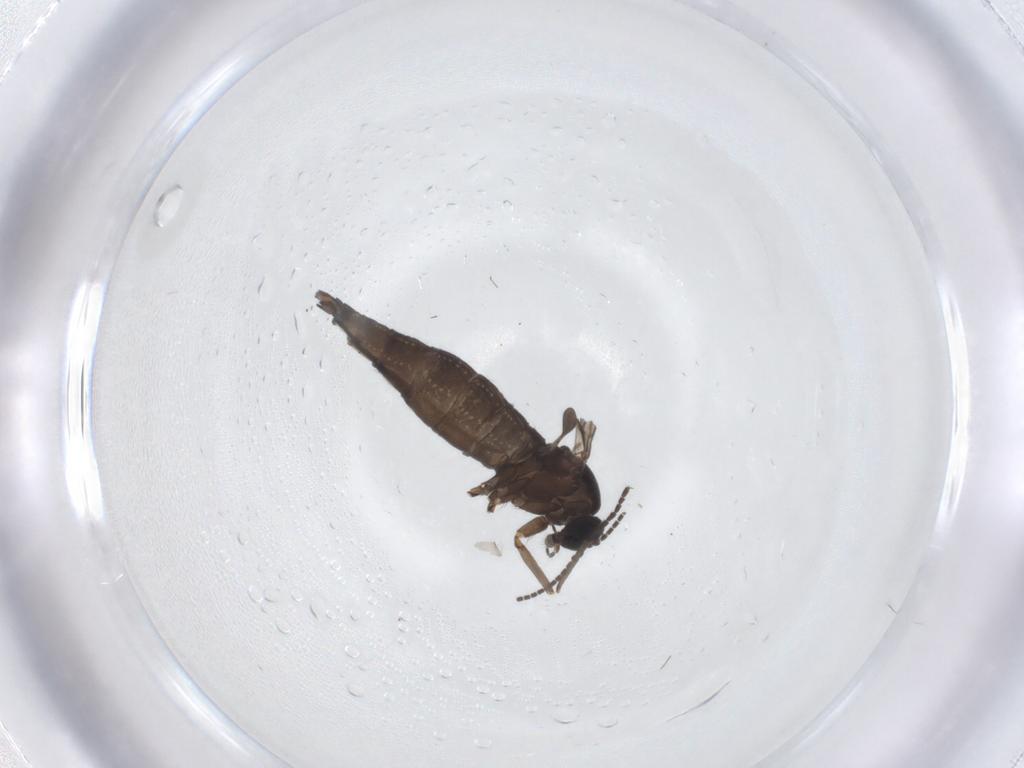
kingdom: Animalia
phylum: Arthropoda
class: Insecta
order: Diptera
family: Sciaridae
